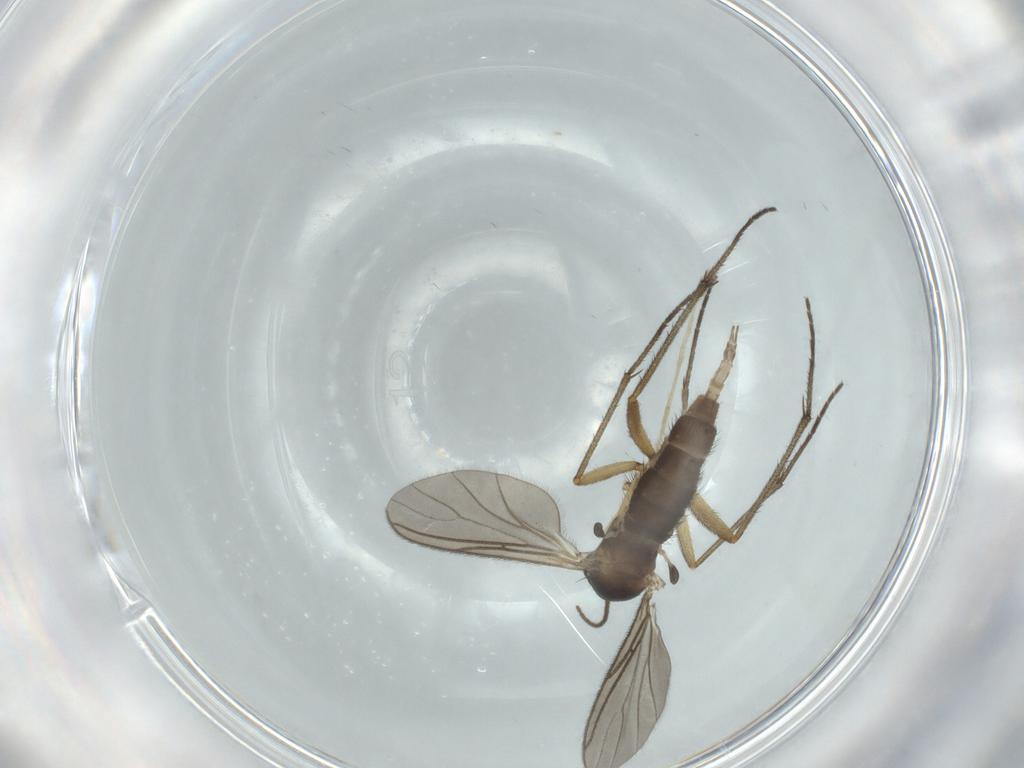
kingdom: Animalia
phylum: Arthropoda
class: Insecta
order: Diptera
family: Sciaridae
